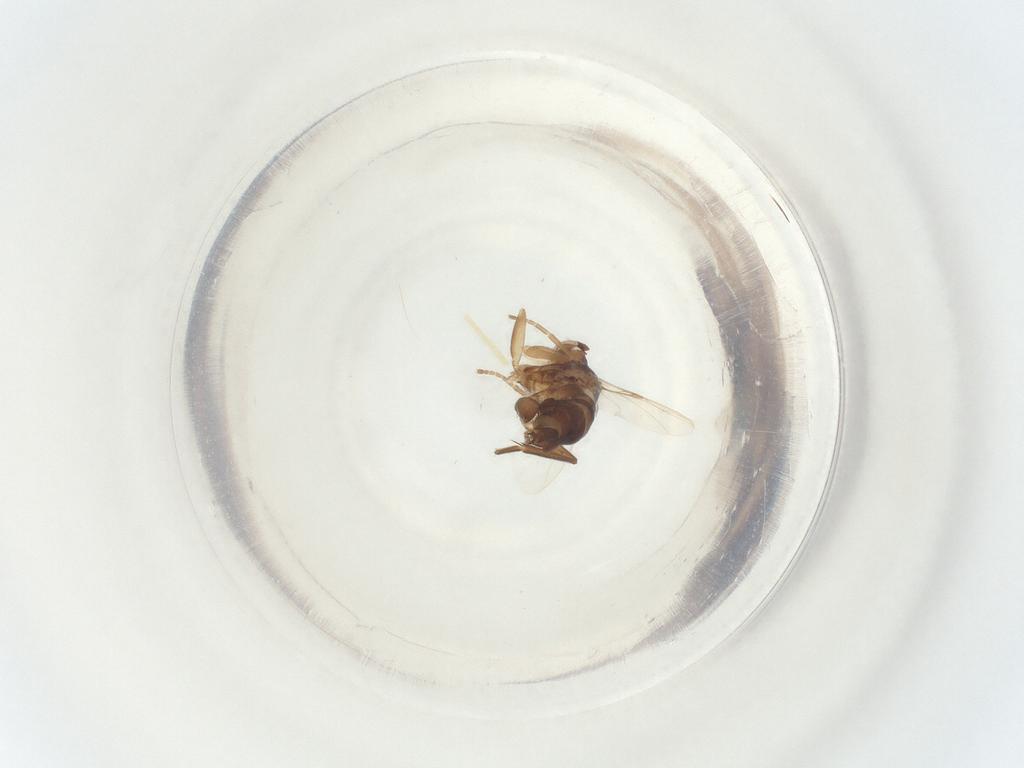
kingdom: Animalia
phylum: Arthropoda
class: Insecta
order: Diptera
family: Phoridae
